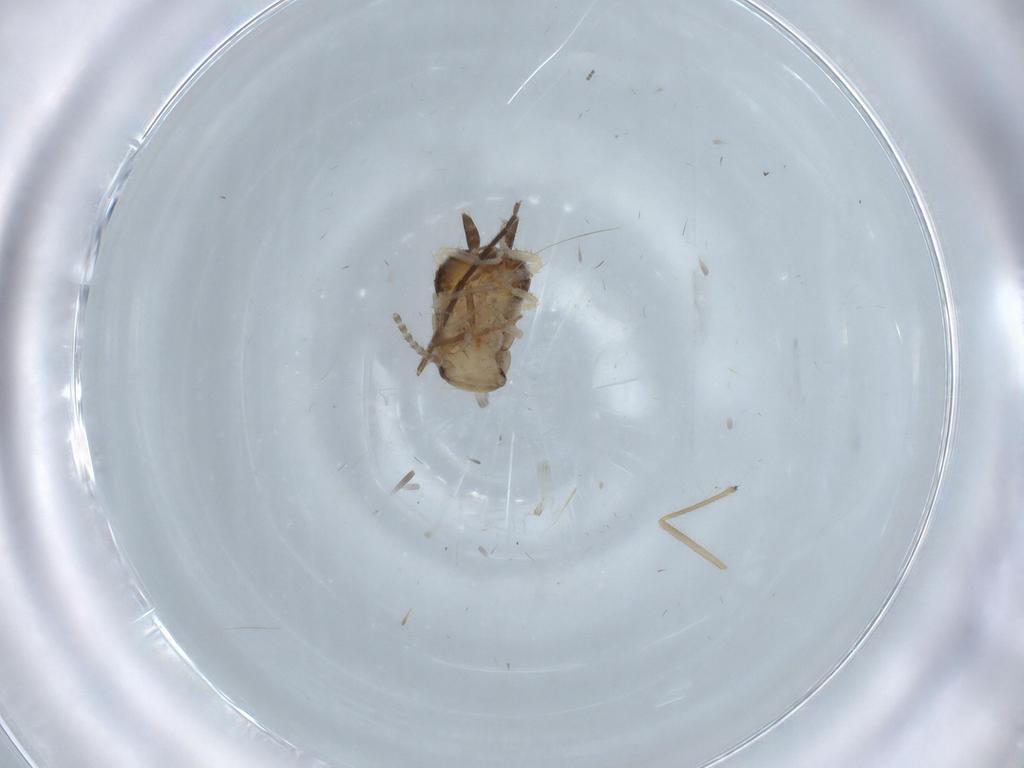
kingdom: Animalia
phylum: Arthropoda
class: Insecta
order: Blattodea
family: Ectobiidae
